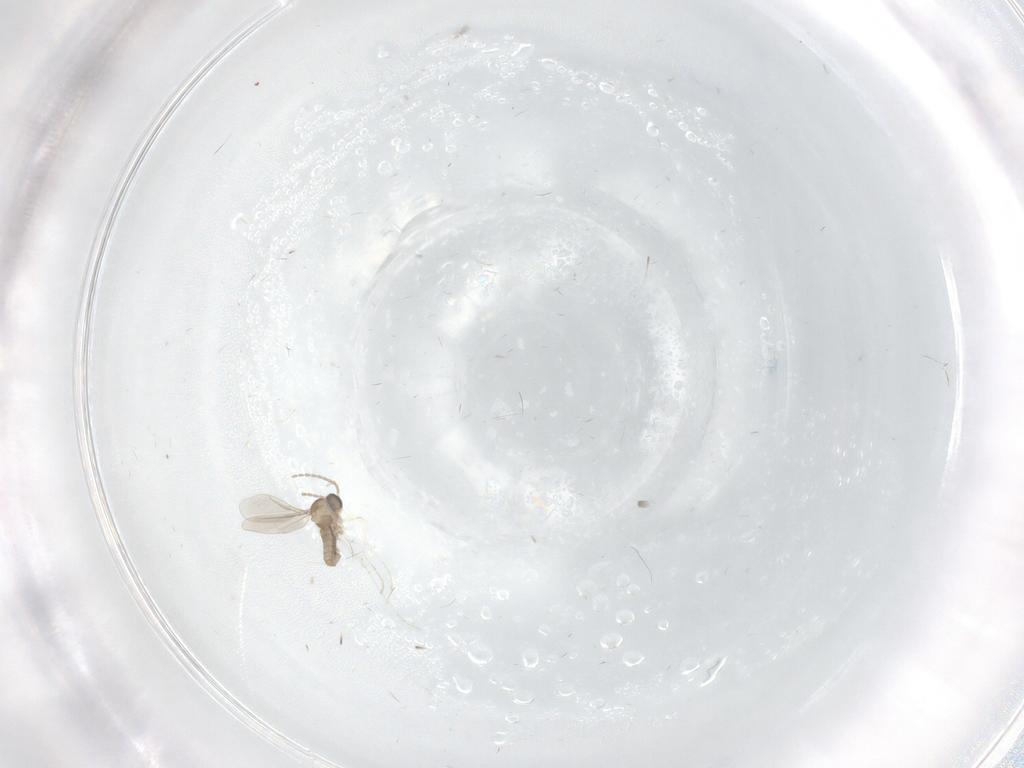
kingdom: Animalia
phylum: Arthropoda
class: Insecta
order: Diptera
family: Cecidomyiidae
